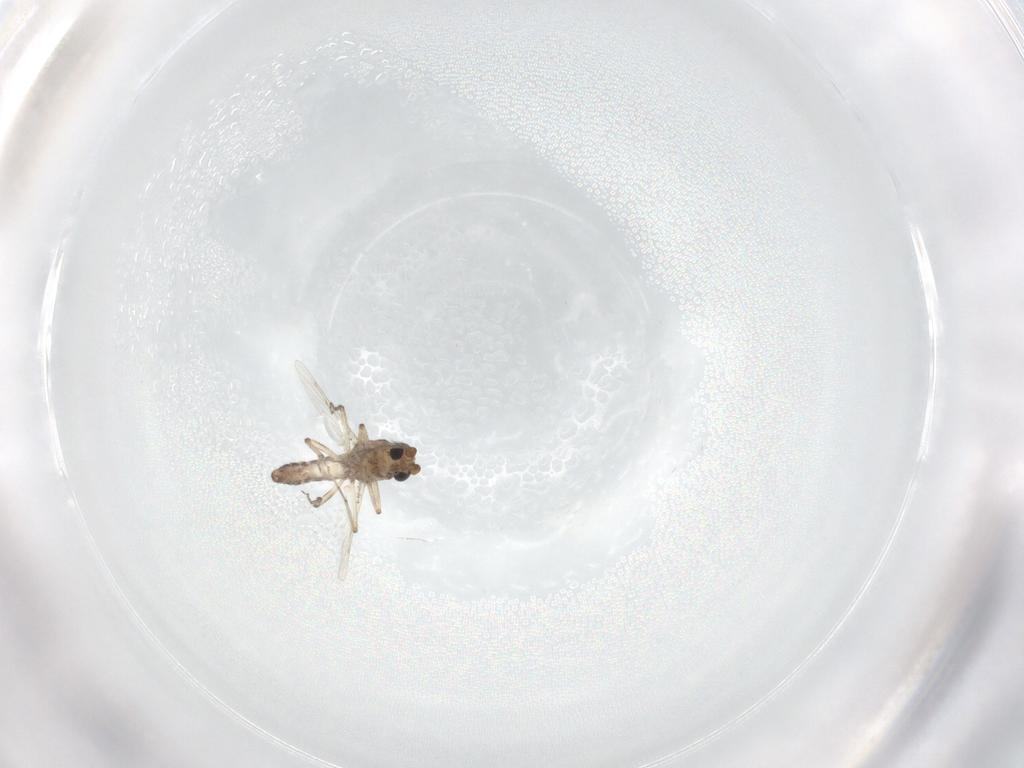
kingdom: Animalia
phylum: Arthropoda
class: Insecta
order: Diptera
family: Ceratopogonidae
